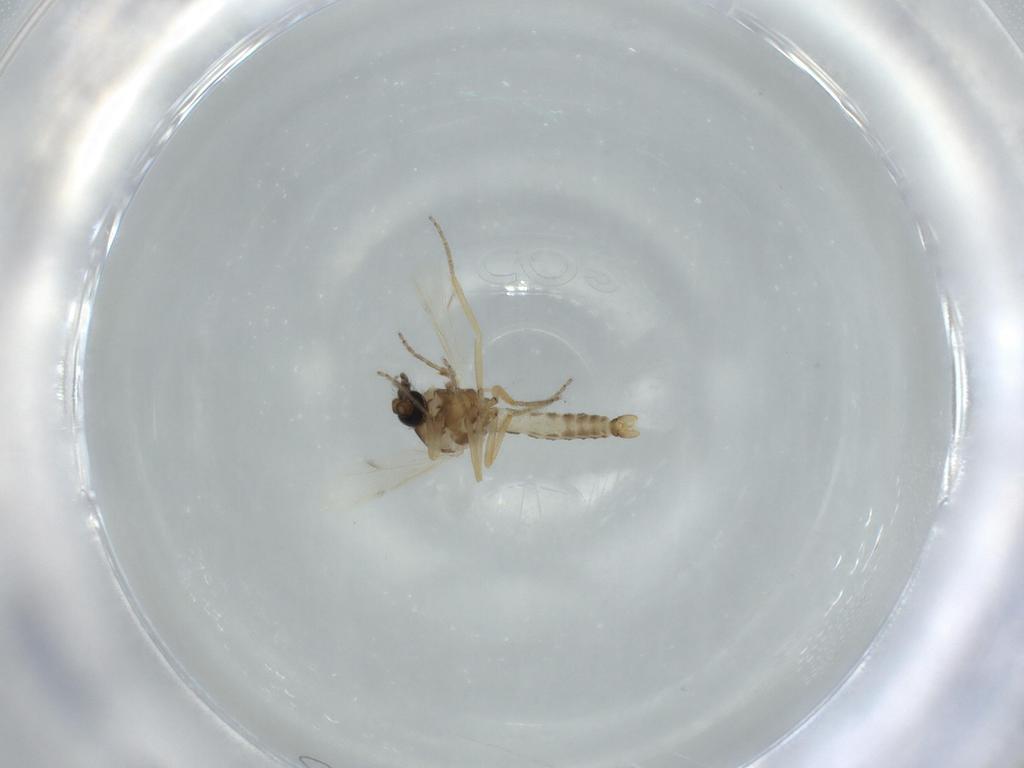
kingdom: Animalia
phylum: Arthropoda
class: Insecta
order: Diptera
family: Ceratopogonidae
